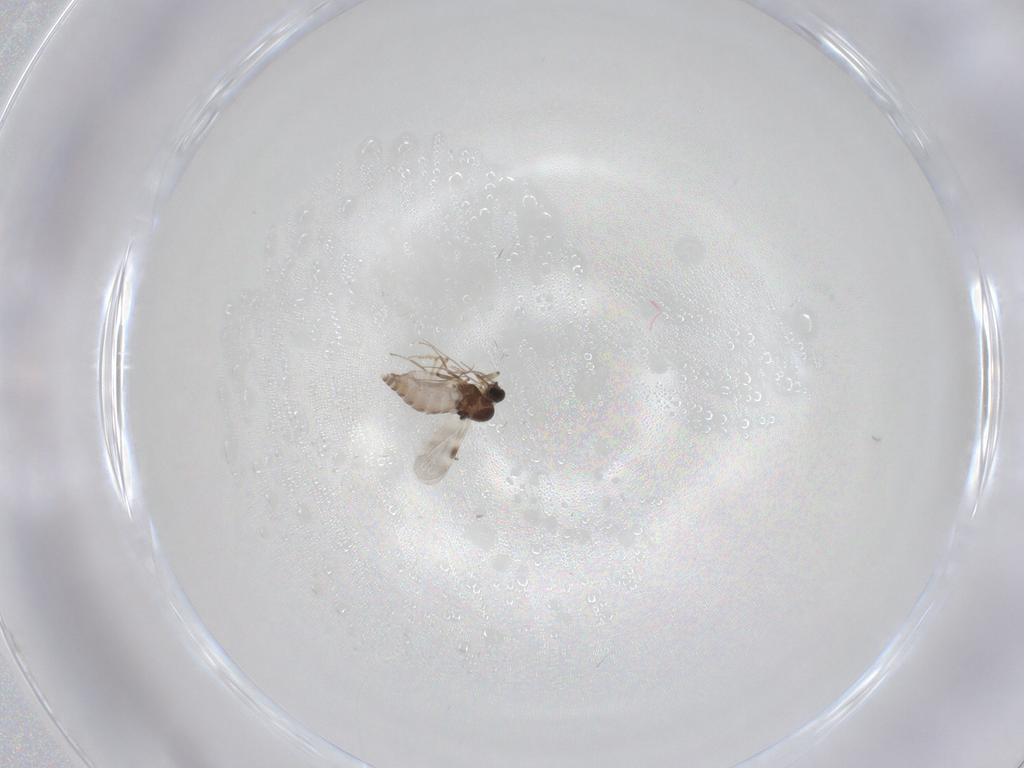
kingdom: Animalia
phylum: Arthropoda
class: Insecta
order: Diptera
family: Sciaridae
